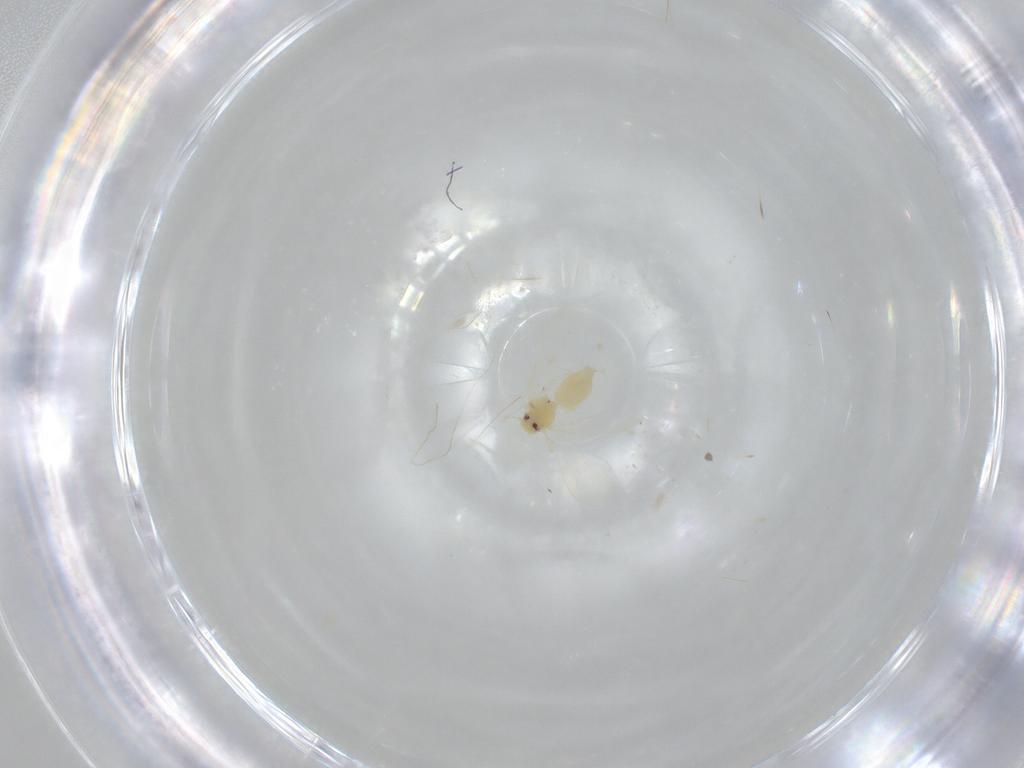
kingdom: Animalia
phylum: Arthropoda
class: Insecta
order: Hemiptera
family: Aleyrodidae
